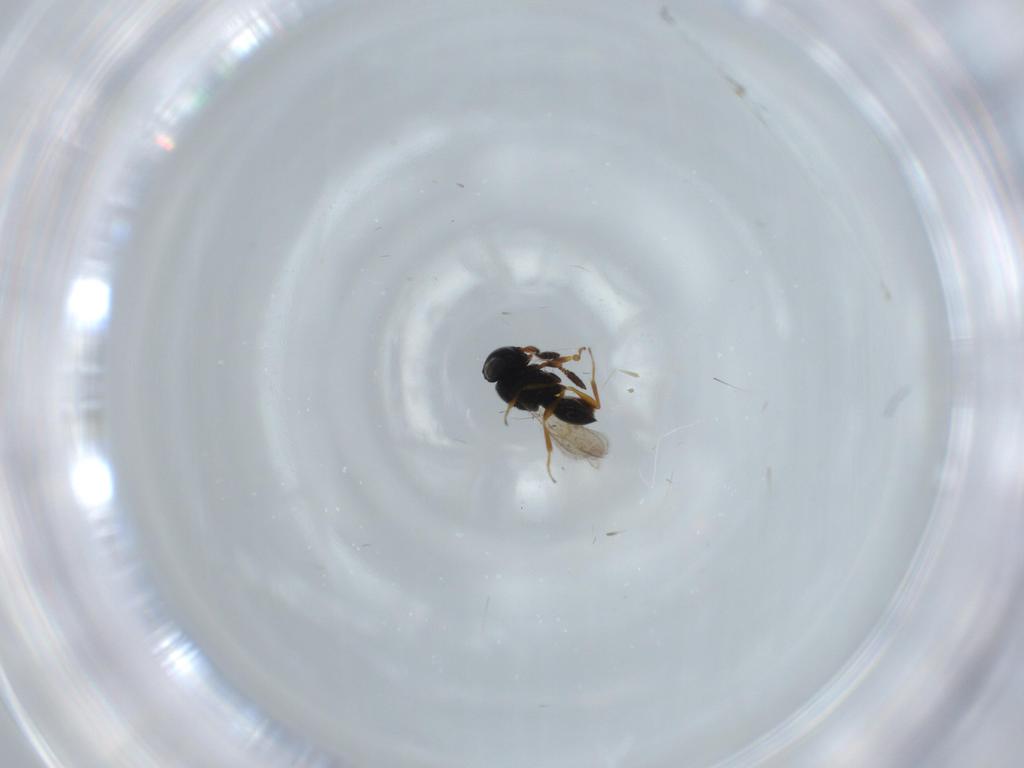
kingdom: Animalia
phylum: Arthropoda
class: Insecta
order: Hymenoptera
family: Scelionidae
